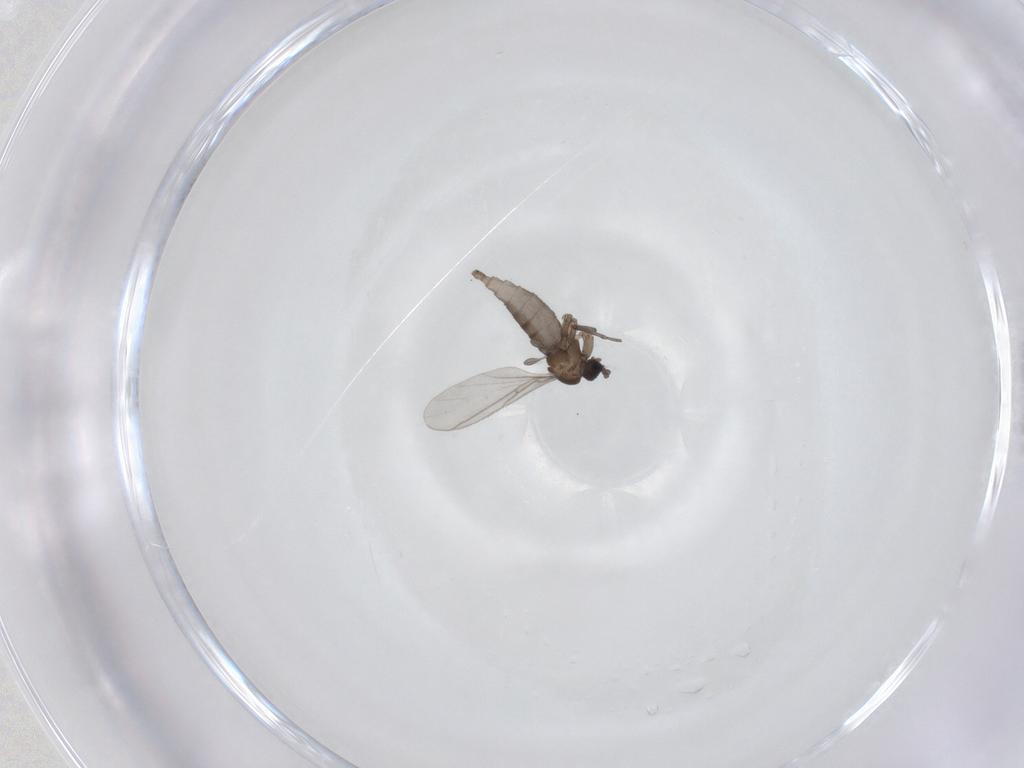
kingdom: Animalia
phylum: Arthropoda
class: Insecta
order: Diptera
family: Sciaridae
